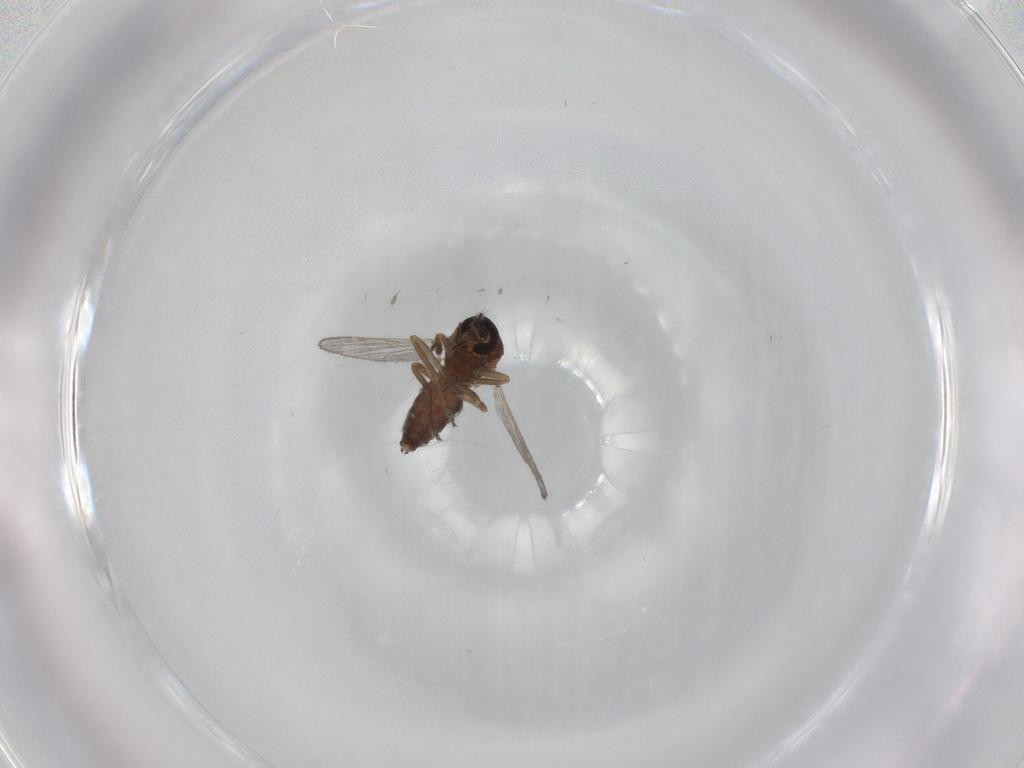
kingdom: Animalia
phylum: Arthropoda
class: Insecta
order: Diptera
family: Ceratopogonidae
